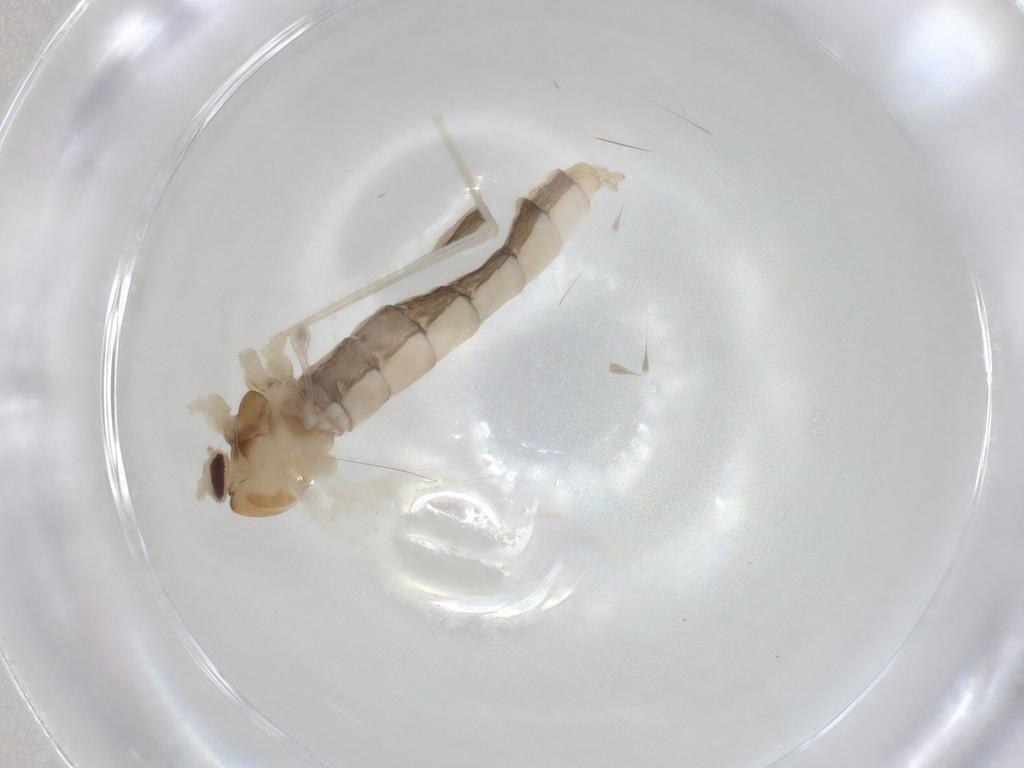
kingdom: Animalia
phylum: Arthropoda
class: Insecta
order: Diptera
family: Cecidomyiidae
